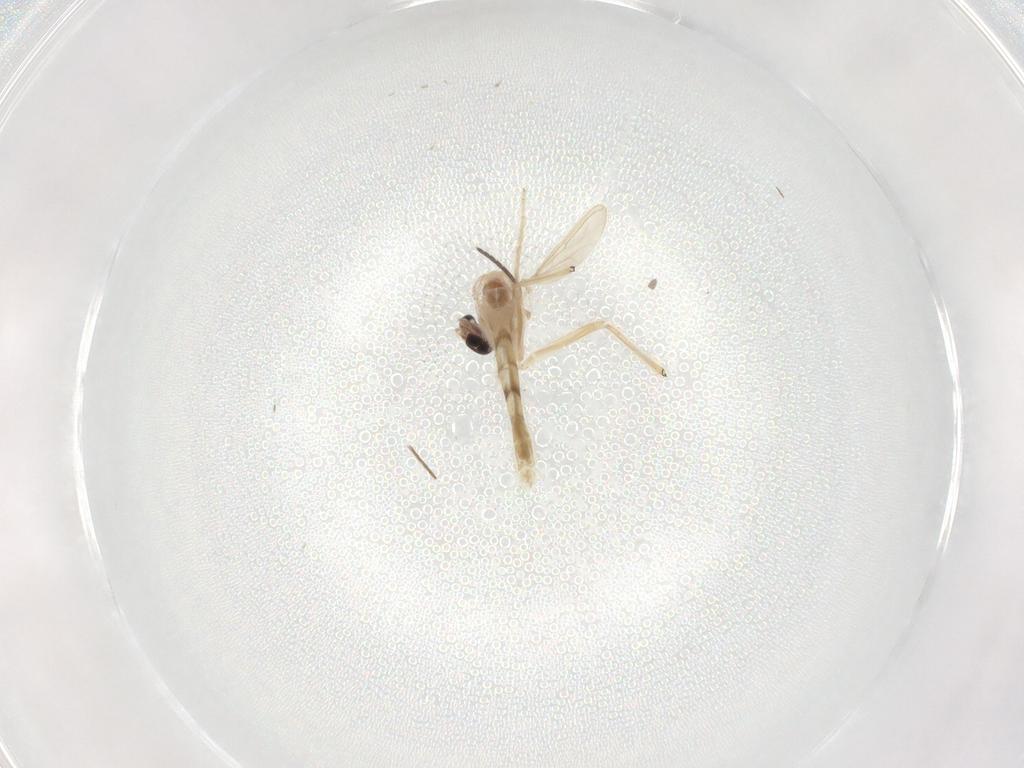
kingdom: Animalia
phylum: Arthropoda
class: Insecta
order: Diptera
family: Chironomidae
